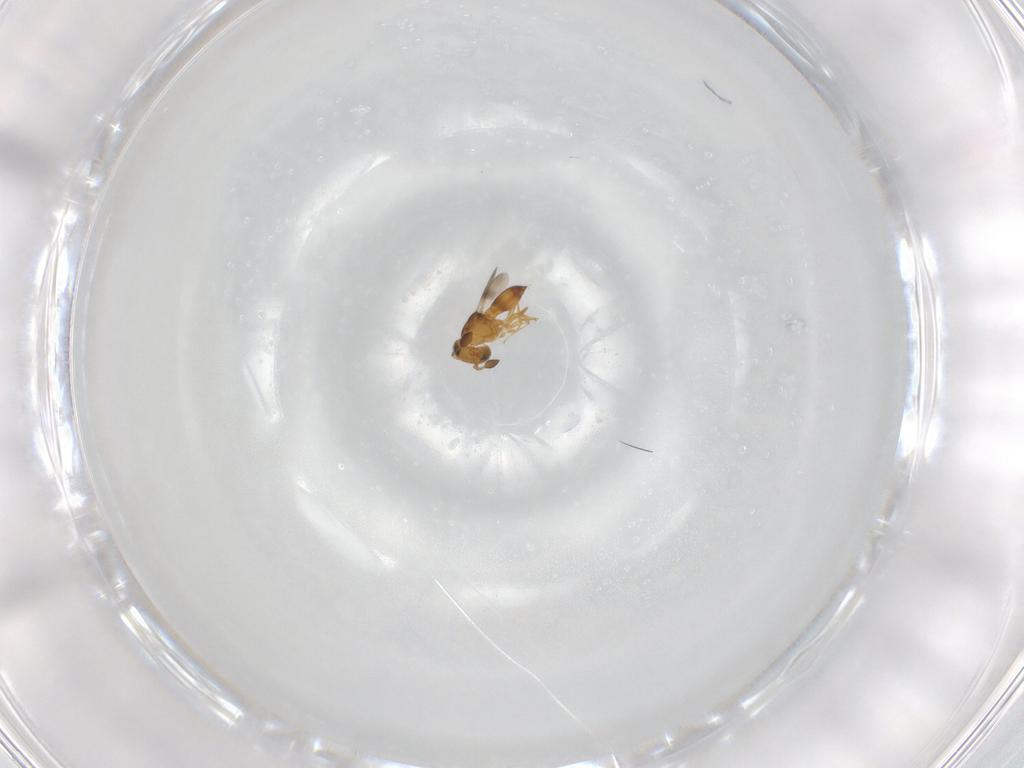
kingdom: Animalia
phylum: Arthropoda
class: Insecta
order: Hymenoptera
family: Scelionidae
